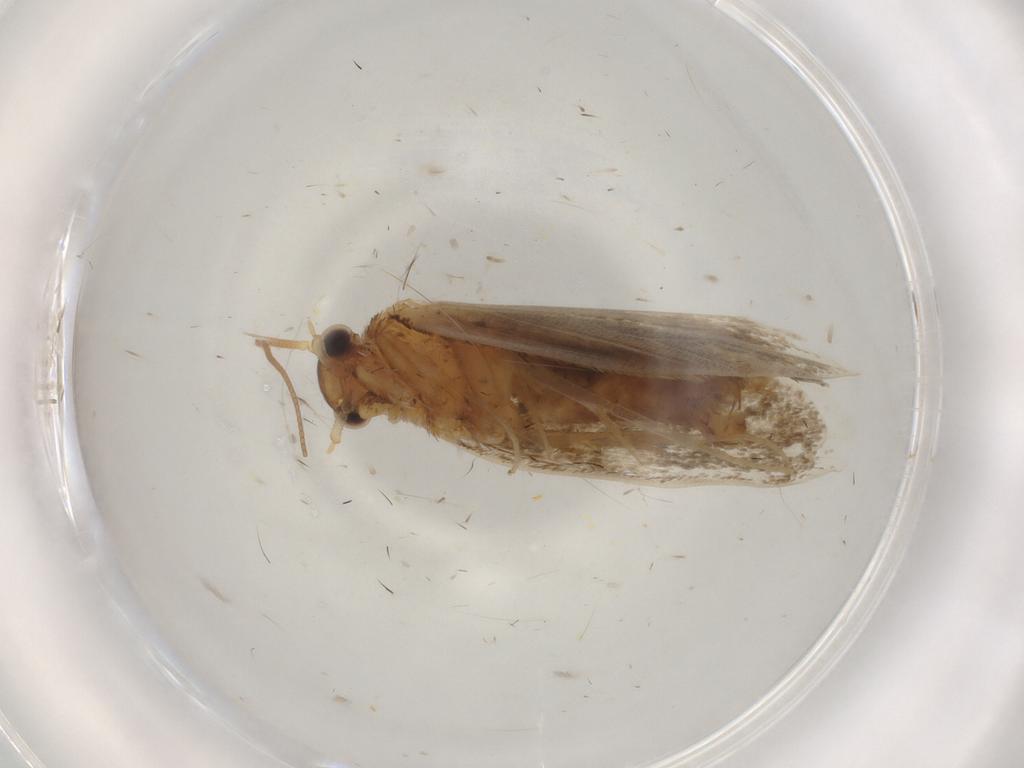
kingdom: Animalia
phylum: Arthropoda
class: Insecta
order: Lepidoptera
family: Nepticulidae
